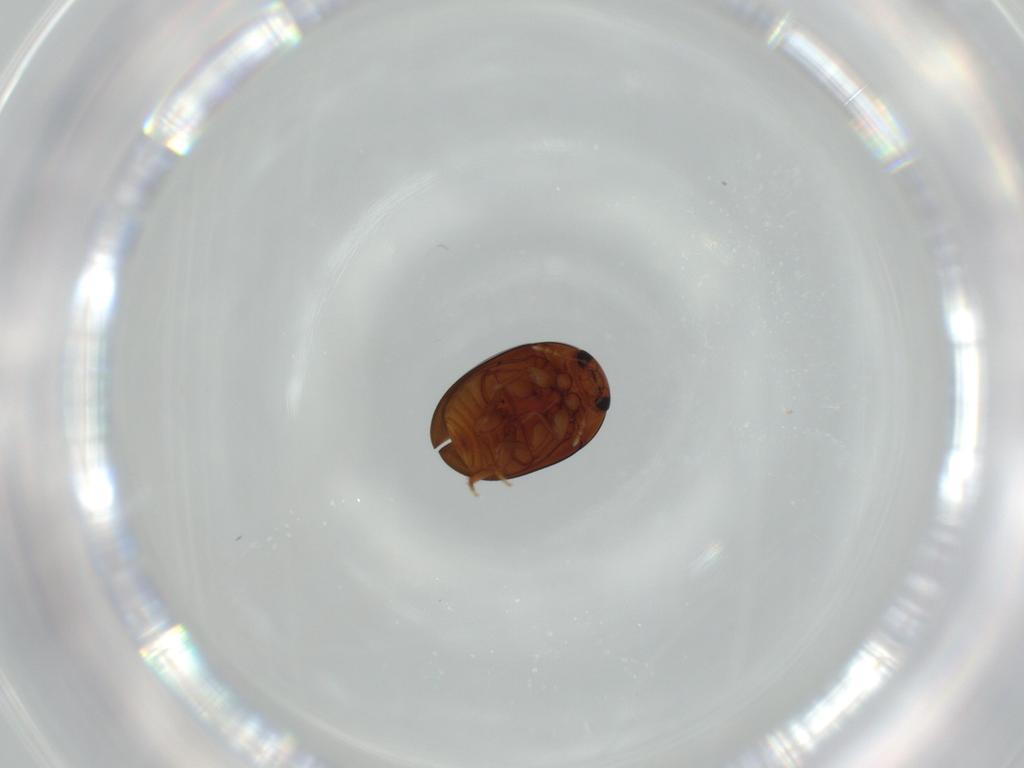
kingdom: Animalia
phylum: Arthropoda
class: Insecta
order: Coleoptera
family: Phalacridae
